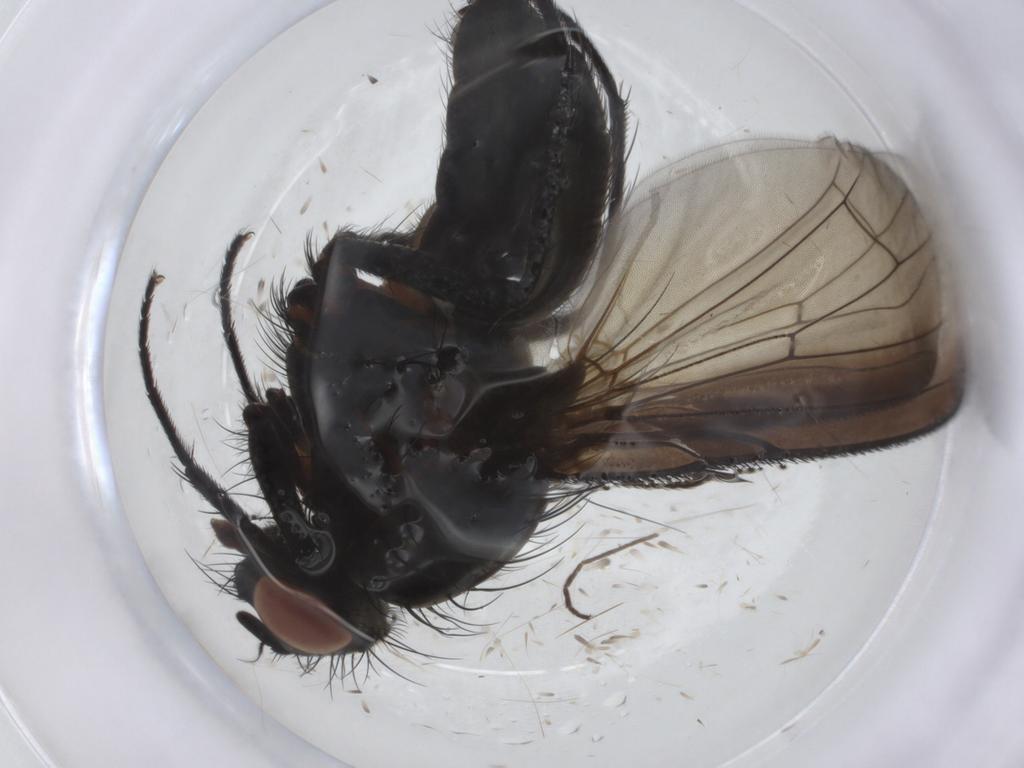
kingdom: Animalia
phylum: Arthropoda
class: Insecta
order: Diptera
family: Anthomyiidae
